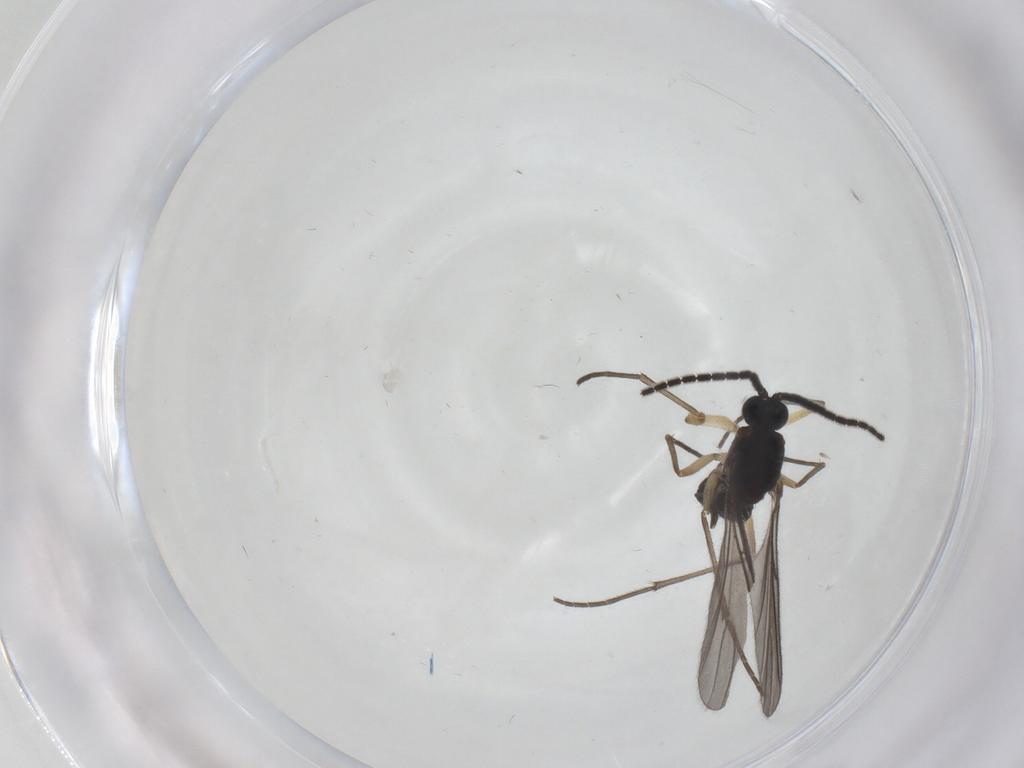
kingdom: Animalia
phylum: Arthropoda
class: Insecta
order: Diptera
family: Sciaridae
